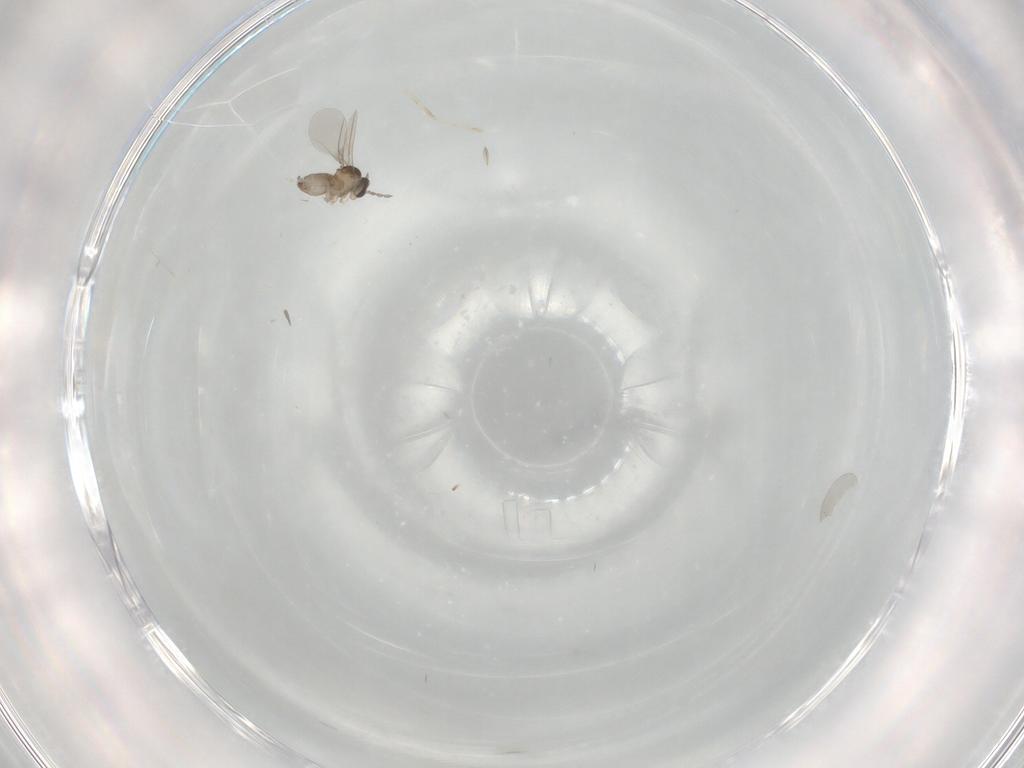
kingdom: Animalia
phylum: Arthropoda
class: Insecta
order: Diptera
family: Cecidomyiidae
